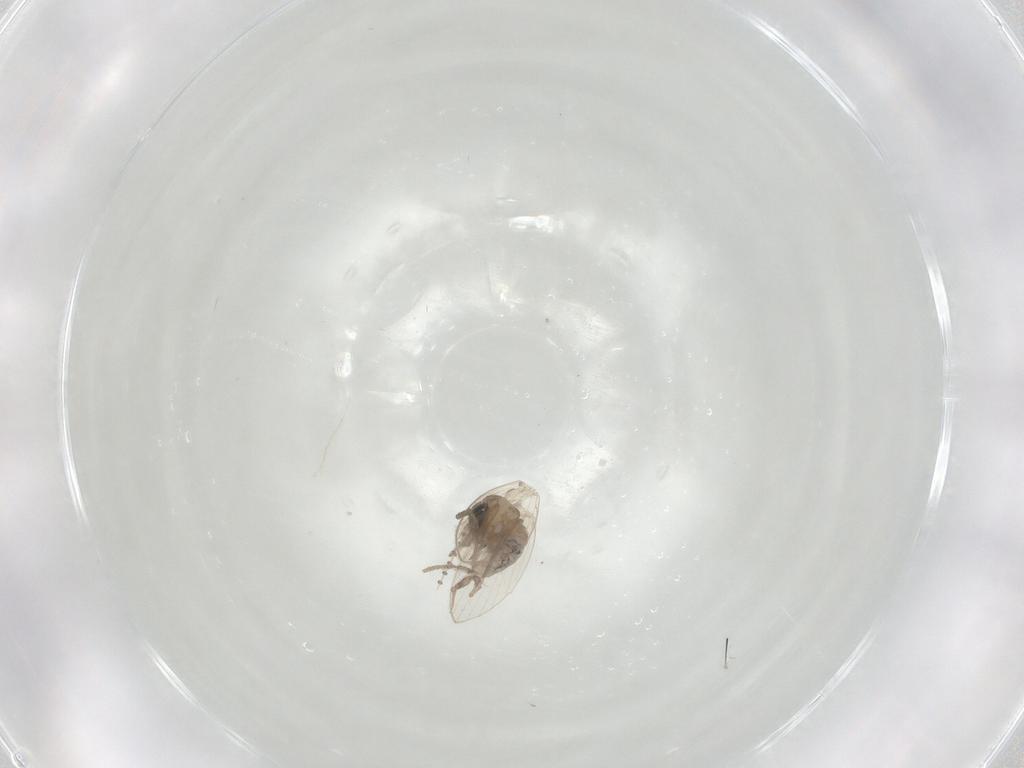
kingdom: Animalia
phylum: Arthropoda
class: Insecta
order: Diptera
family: Psychodidae
